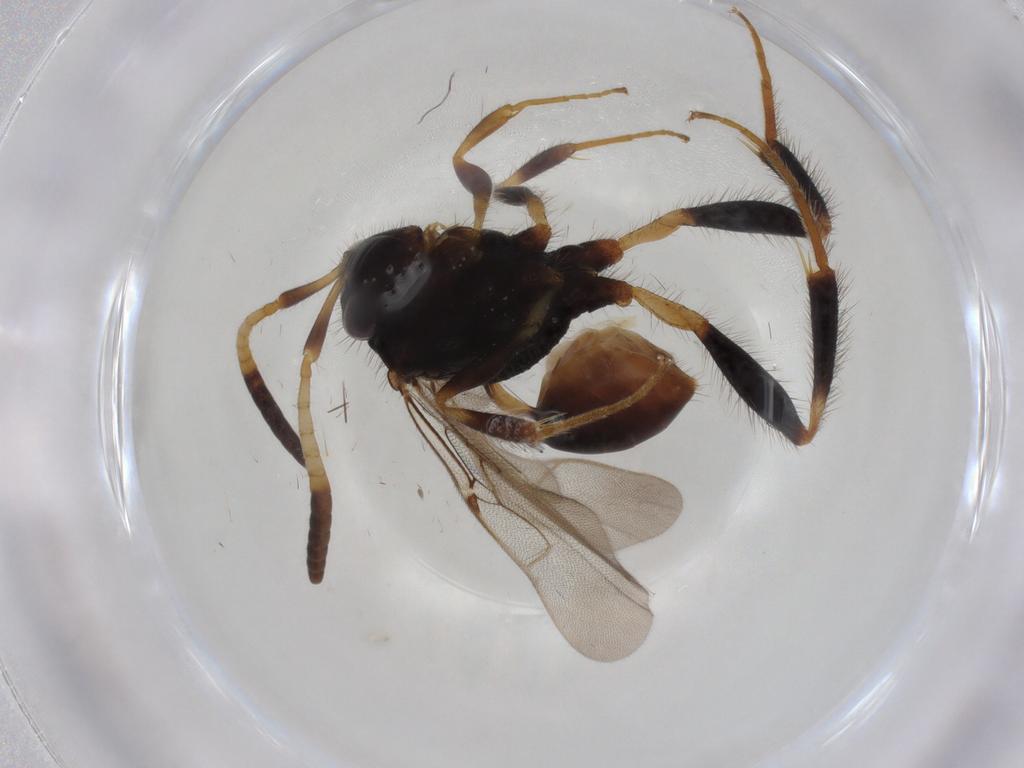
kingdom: Animalia
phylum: Arthropoda
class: Insecta
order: Hymenoptera
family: Evaniidae
